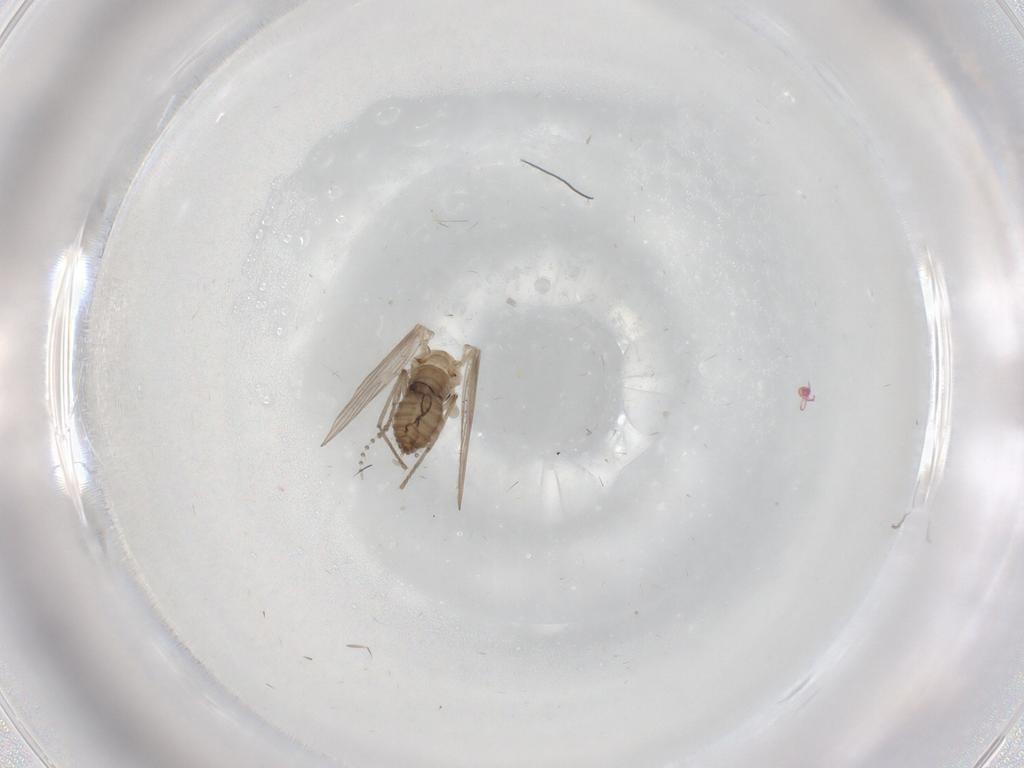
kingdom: Animalia
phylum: Arthropoda
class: Insecta
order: Diptera
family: Psychodidae
